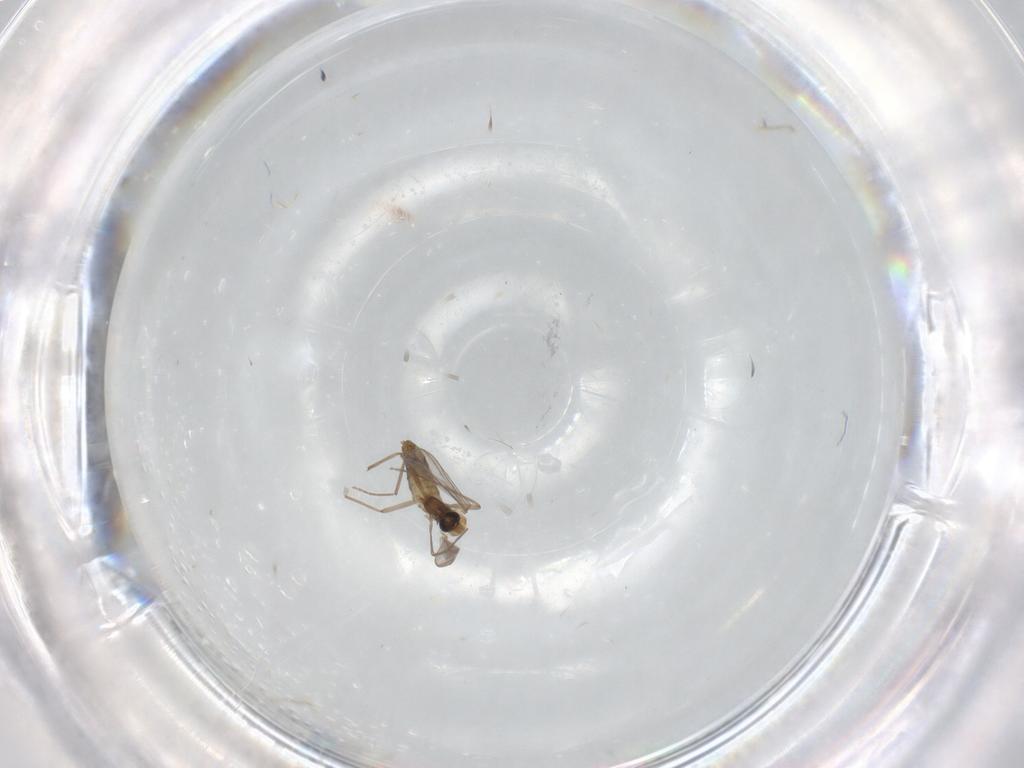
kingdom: Animalia
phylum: Arthropoda
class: Insecta
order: Diptera
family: Chironomidae
